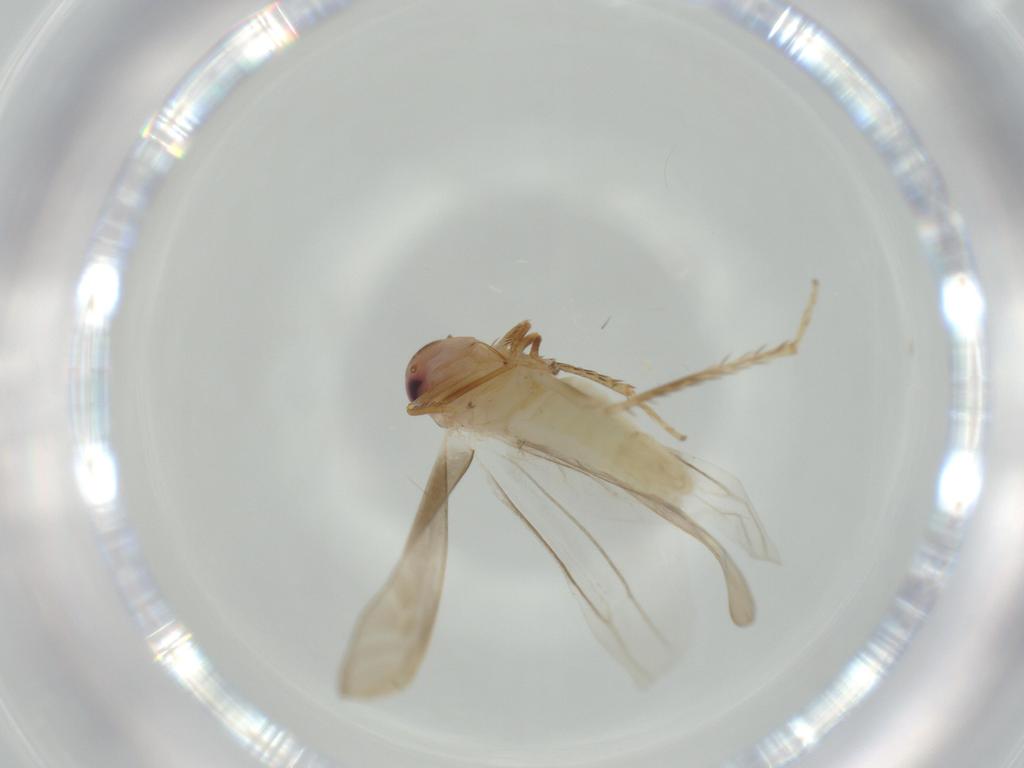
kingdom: Animalia
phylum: Arthropoda
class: Insecta
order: Hemiptera
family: Cicadellidae
